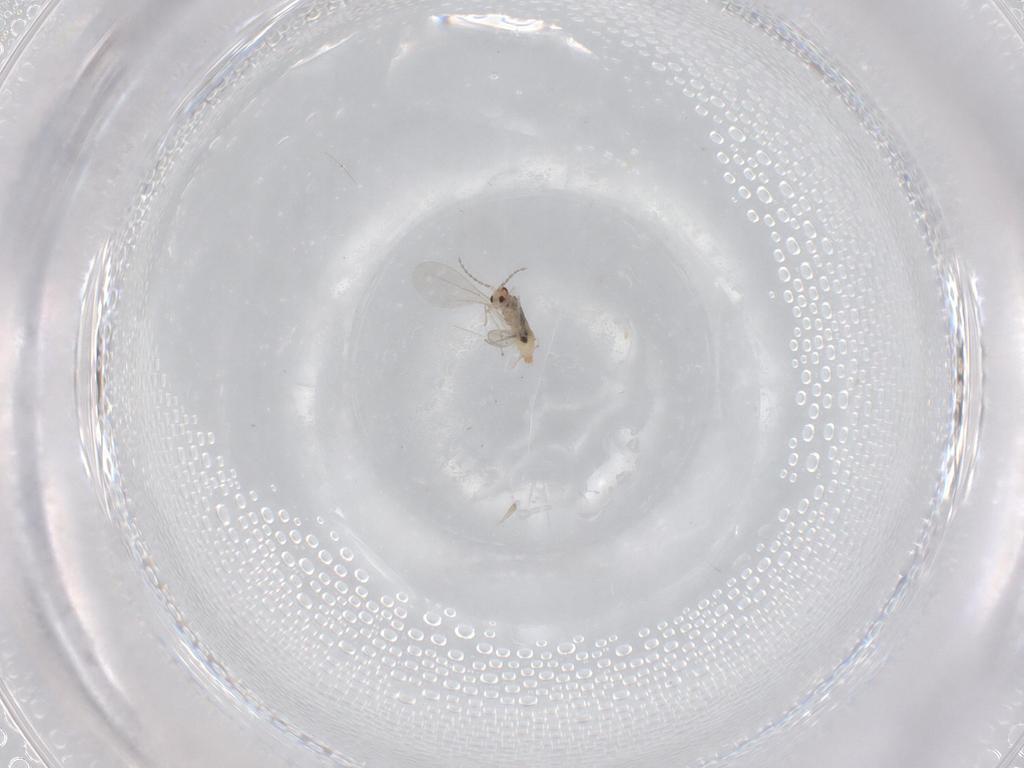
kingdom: Animalia
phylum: Arthropoda
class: Insecta
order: Diptera
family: Cecidomyiidae
